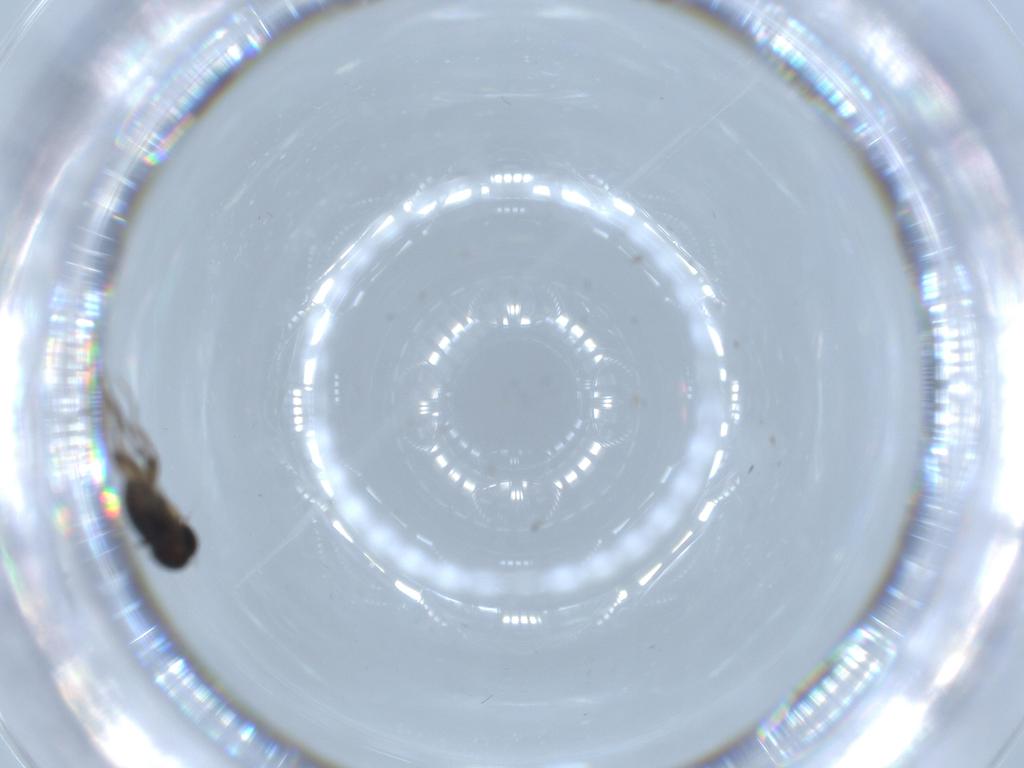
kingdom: Animalia
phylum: Arthropoda
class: Insecta
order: Diptera
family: Phoridae
